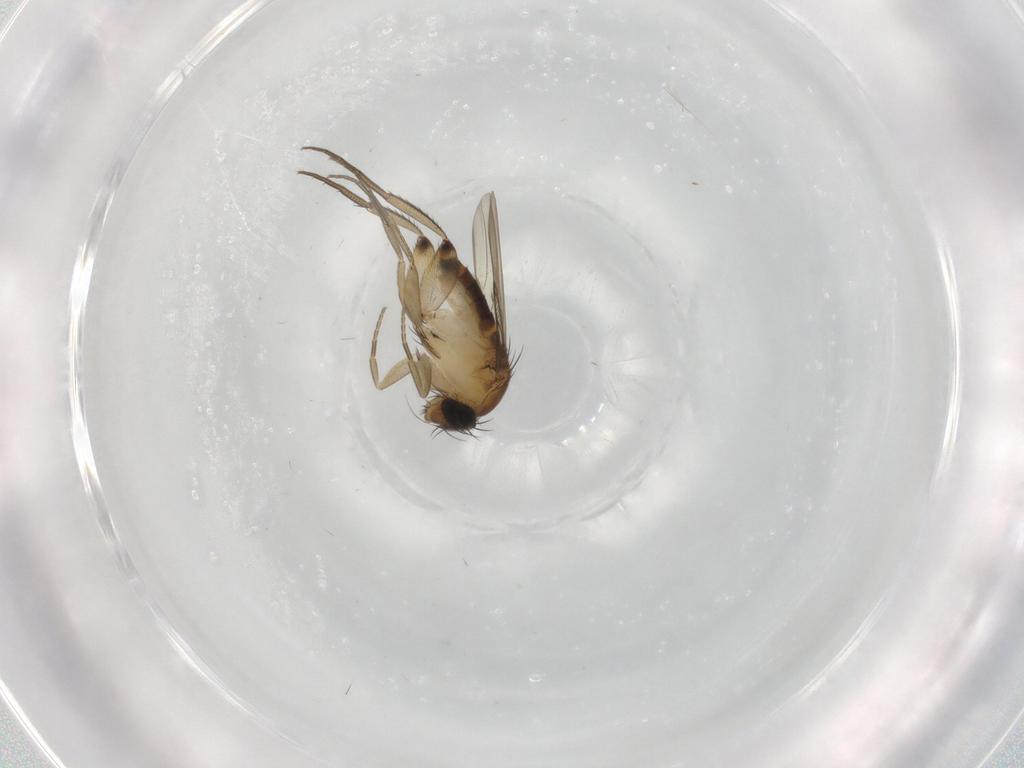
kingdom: Animalia
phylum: Arthropoda
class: Insecta
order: Diptera
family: Phoridae
